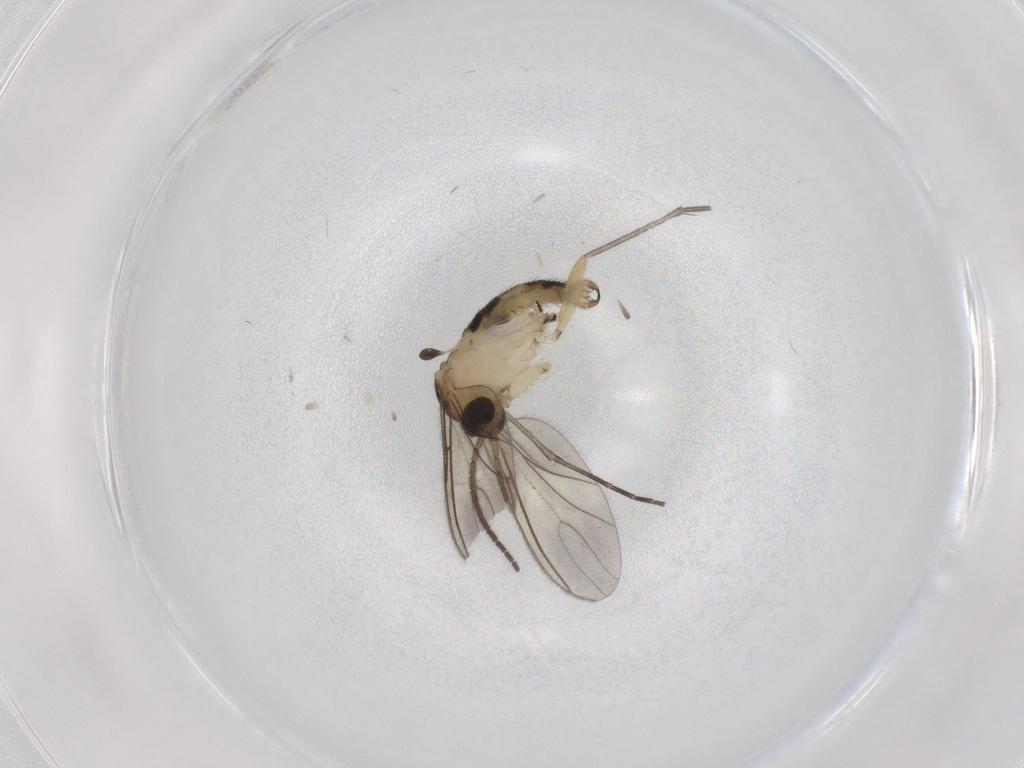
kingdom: Animalia
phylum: Arthropoda
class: Insecta
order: Diptera
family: Sciaridae
